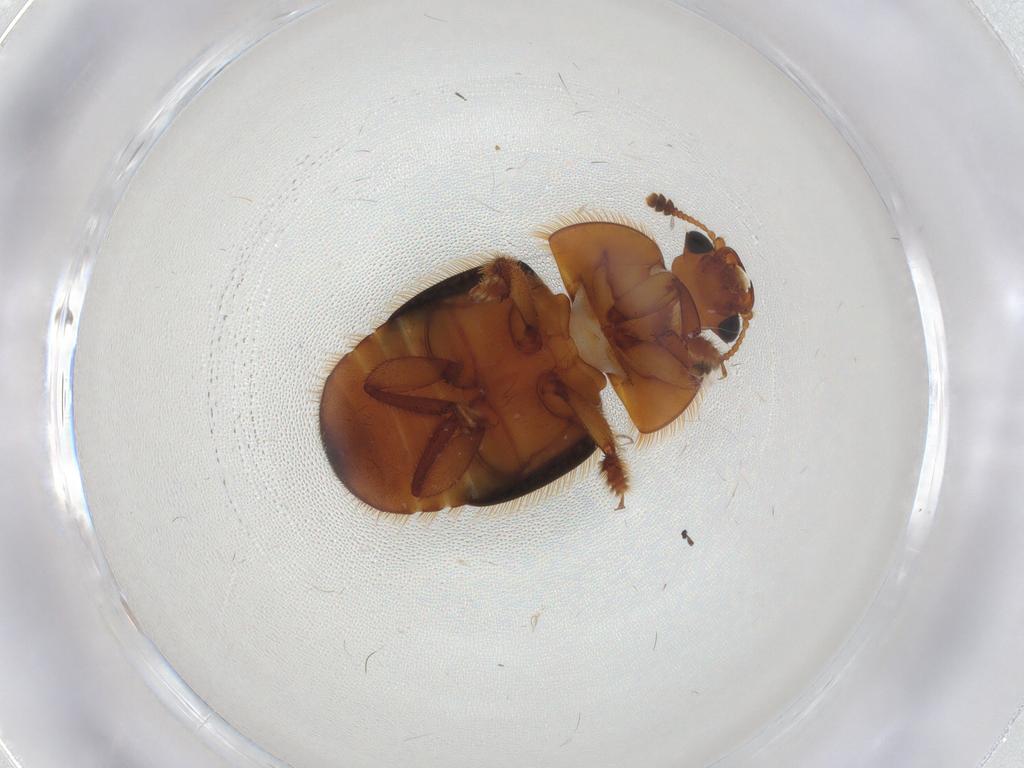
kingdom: Animalia
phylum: Arthropoda
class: Insecta
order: Coleoptera
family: Nitidulidae
